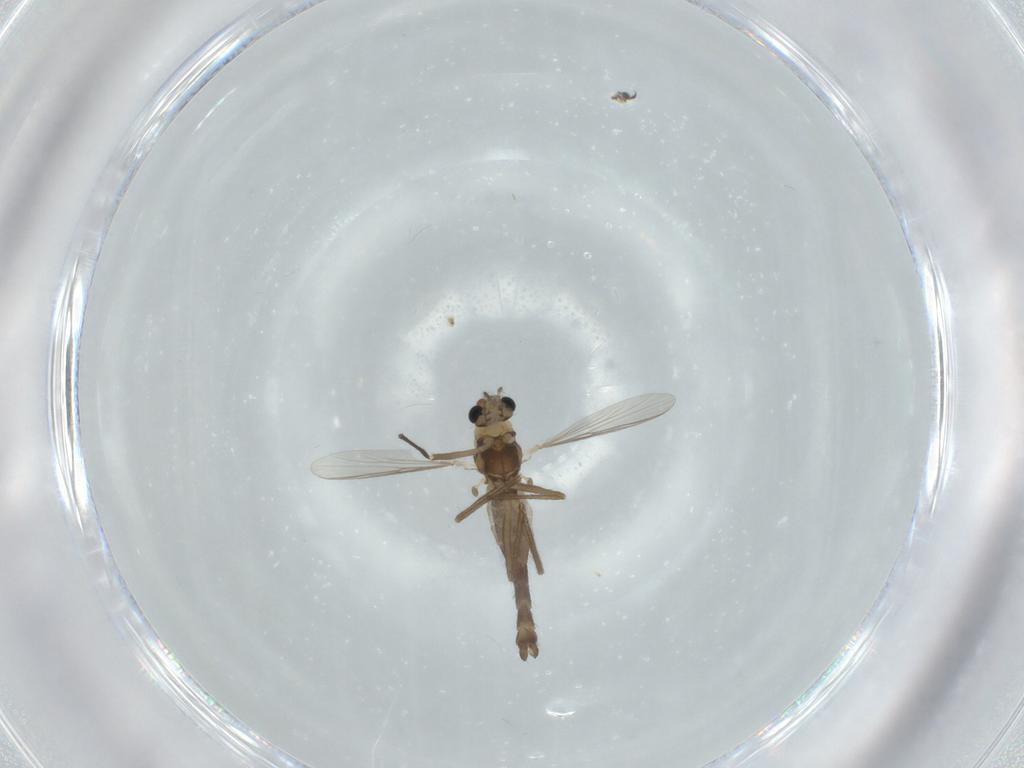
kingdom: Animalia
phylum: Arthropoda
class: Insecta
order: Diptera
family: Chironomidae
